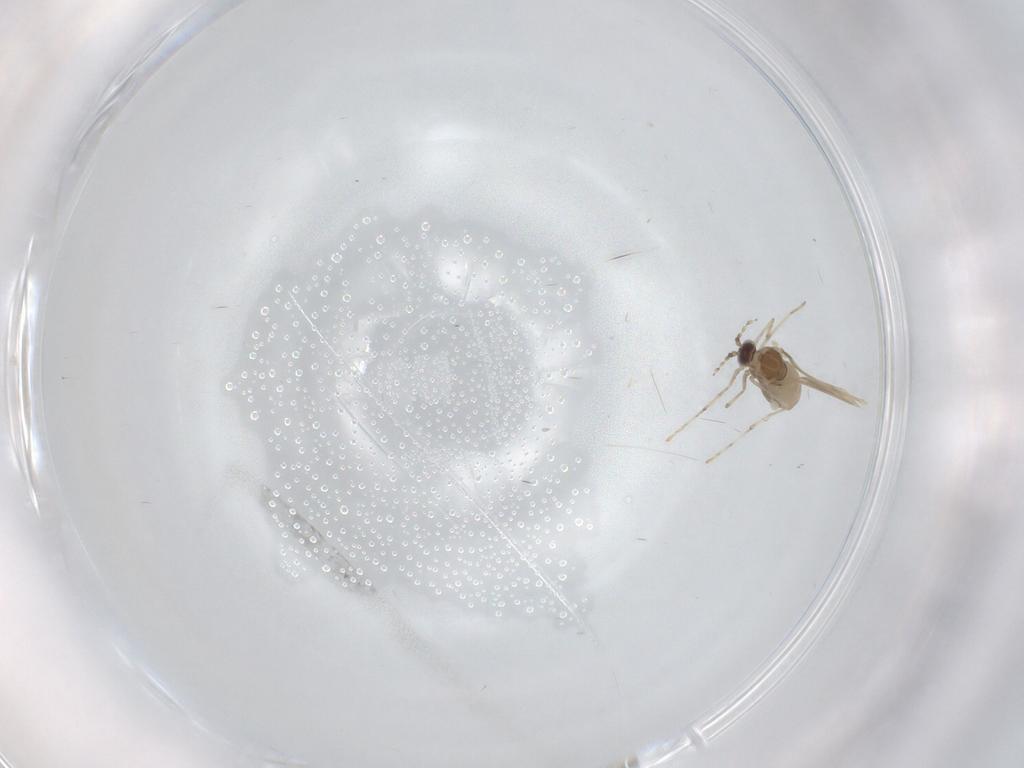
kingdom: Animalia
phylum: Arthropoda
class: Insecta
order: Diptera
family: Cecidomyiidae
